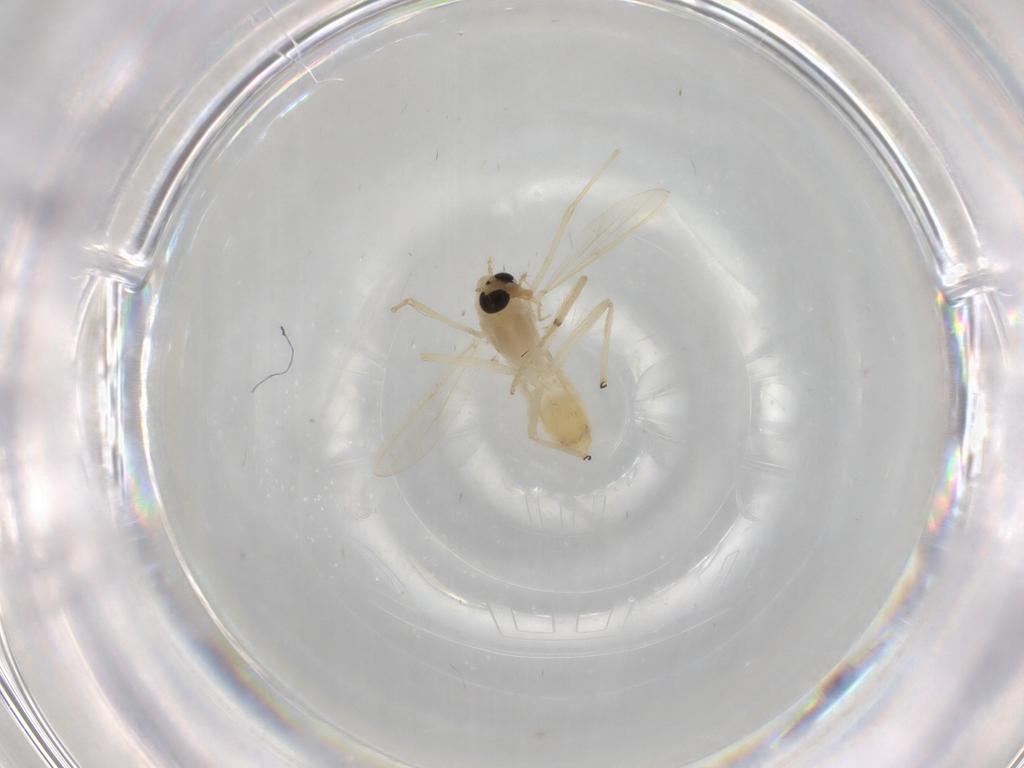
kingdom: Animalia
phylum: Arthropoda
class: Insecta
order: Diptera
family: Chironomidae
